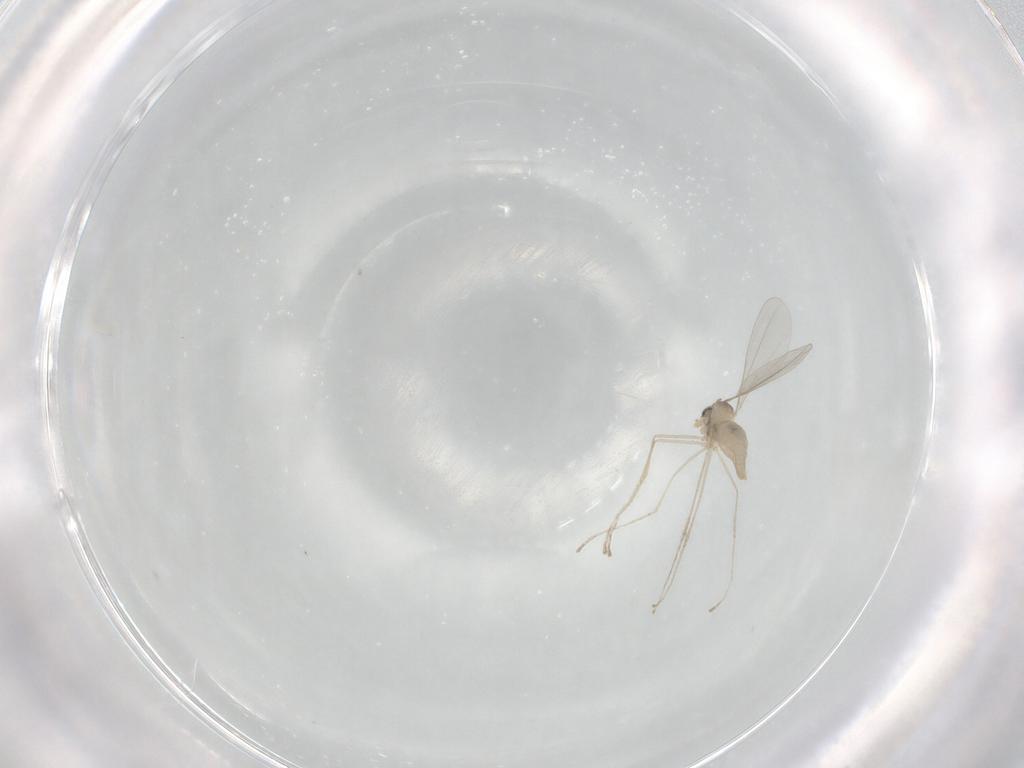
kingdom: Animalia
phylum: Arthropoda
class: Insecta
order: Diptera
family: Cecidomyiidae
